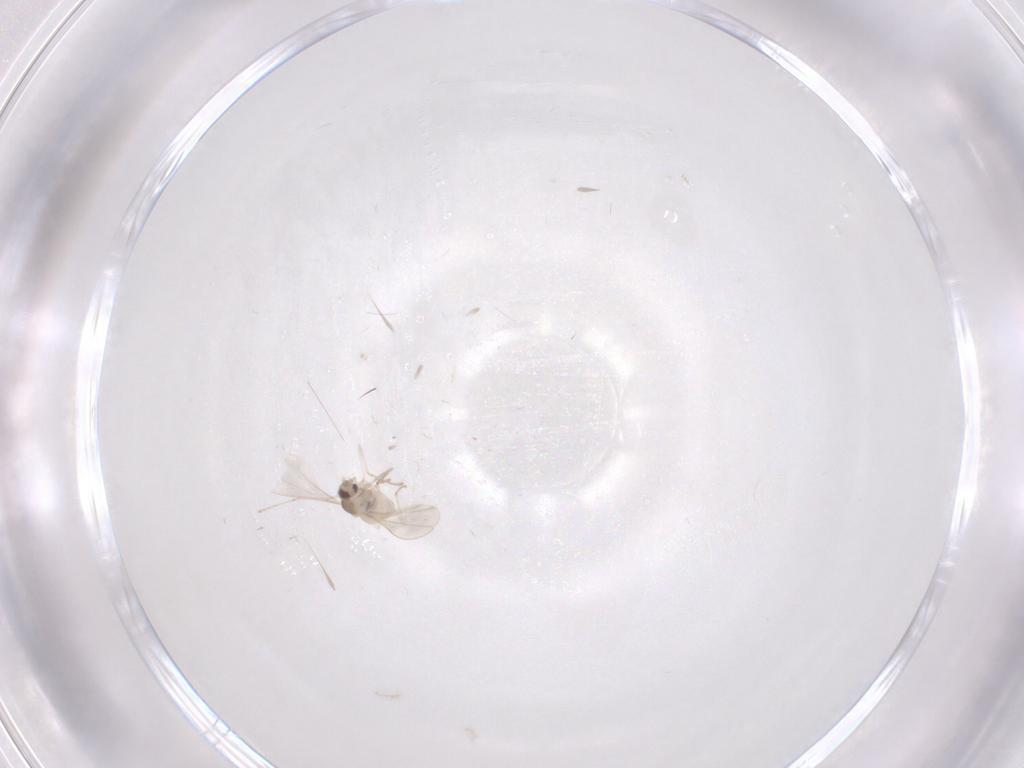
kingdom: Animalia
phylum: Arthropoda
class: Insecta
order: Diptera
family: Cecidomyiidae
